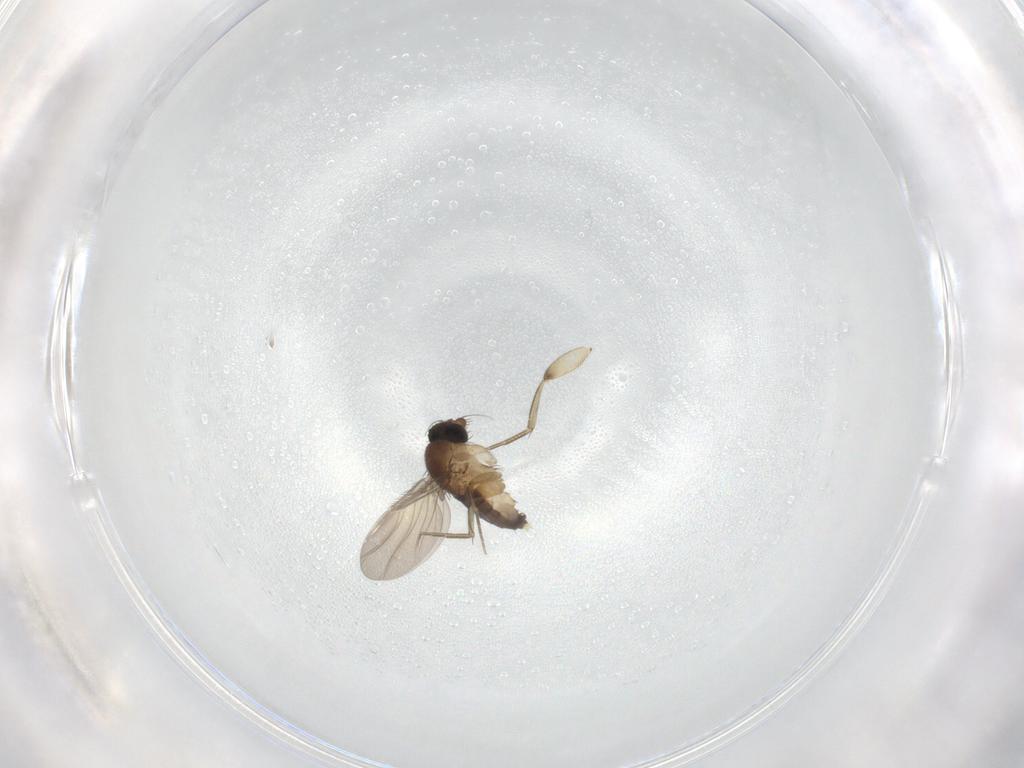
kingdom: Animalia
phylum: Arthropoda
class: Insecta
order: Diptera
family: Phoridae
